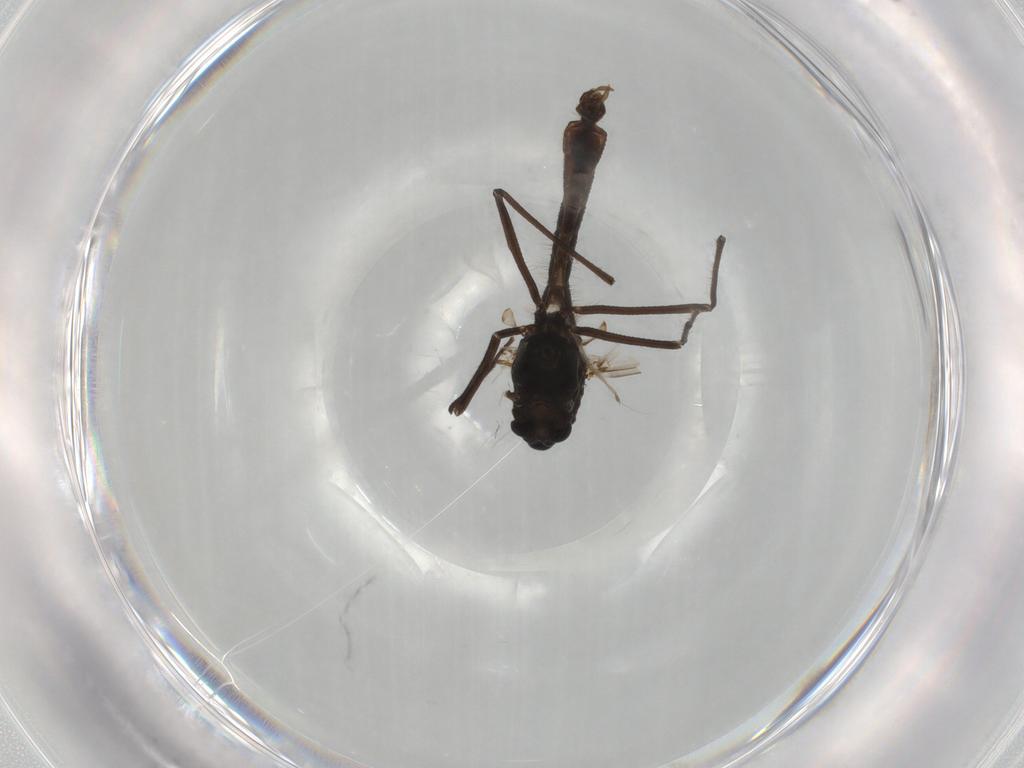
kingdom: Animalia
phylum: Arthropoda
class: Insecta
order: Diptera
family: Chironomidae
